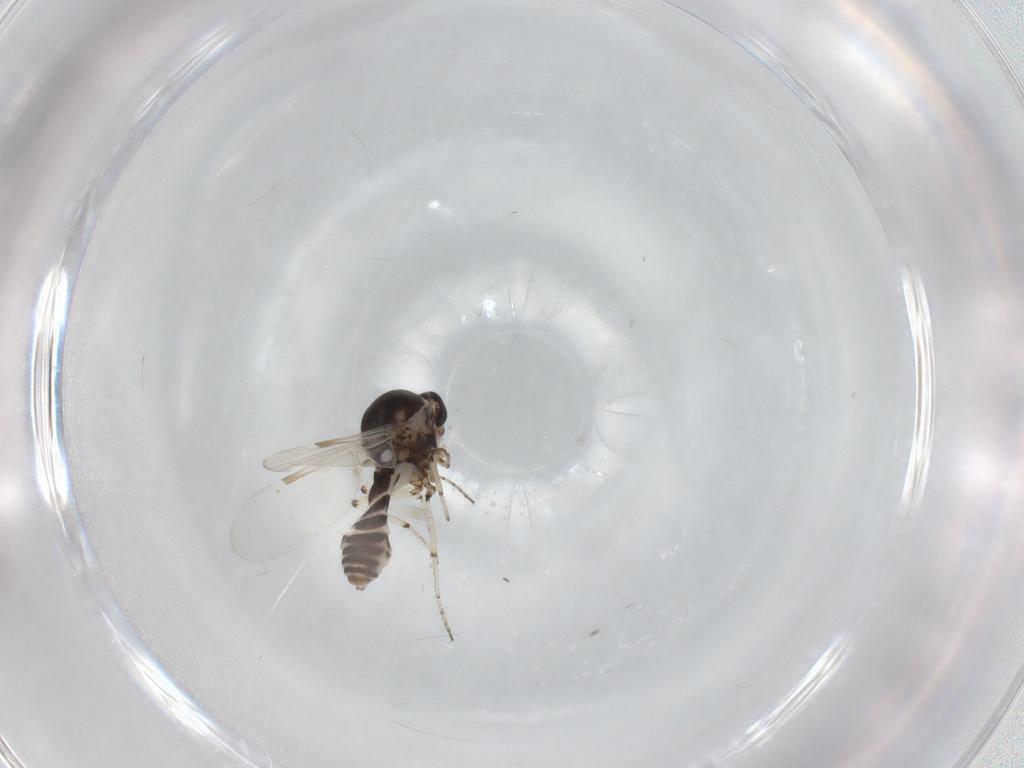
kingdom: Animalia
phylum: Arthropoda
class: Insecta
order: Diptera
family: Ceratopogonidae
